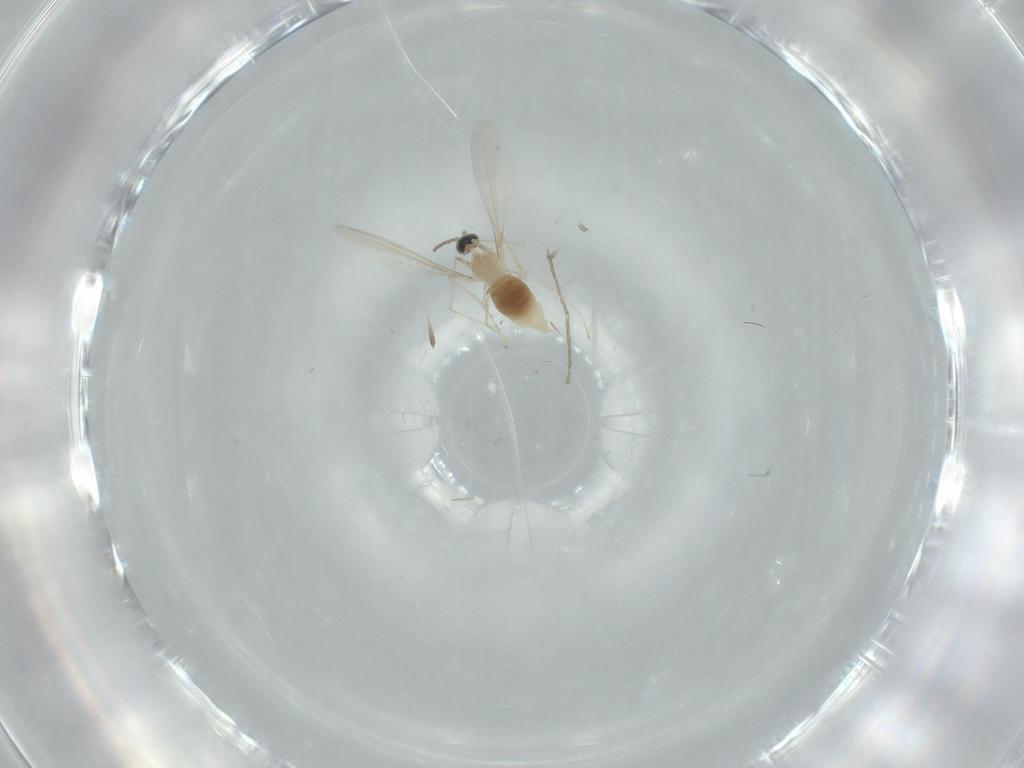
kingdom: Animalia
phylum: Arthropoda
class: Insecta
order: Diptera
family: Cecidomyiidae
